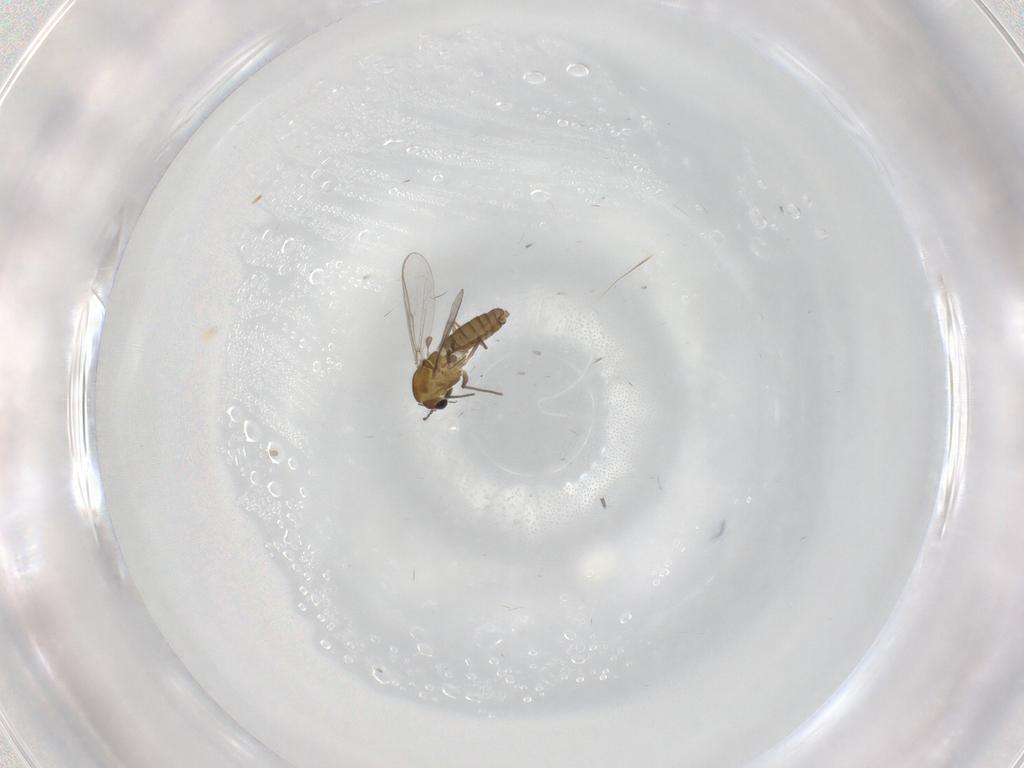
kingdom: Animalia
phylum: Arthropoda
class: Insecta
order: Diptera
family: Chironomidae
